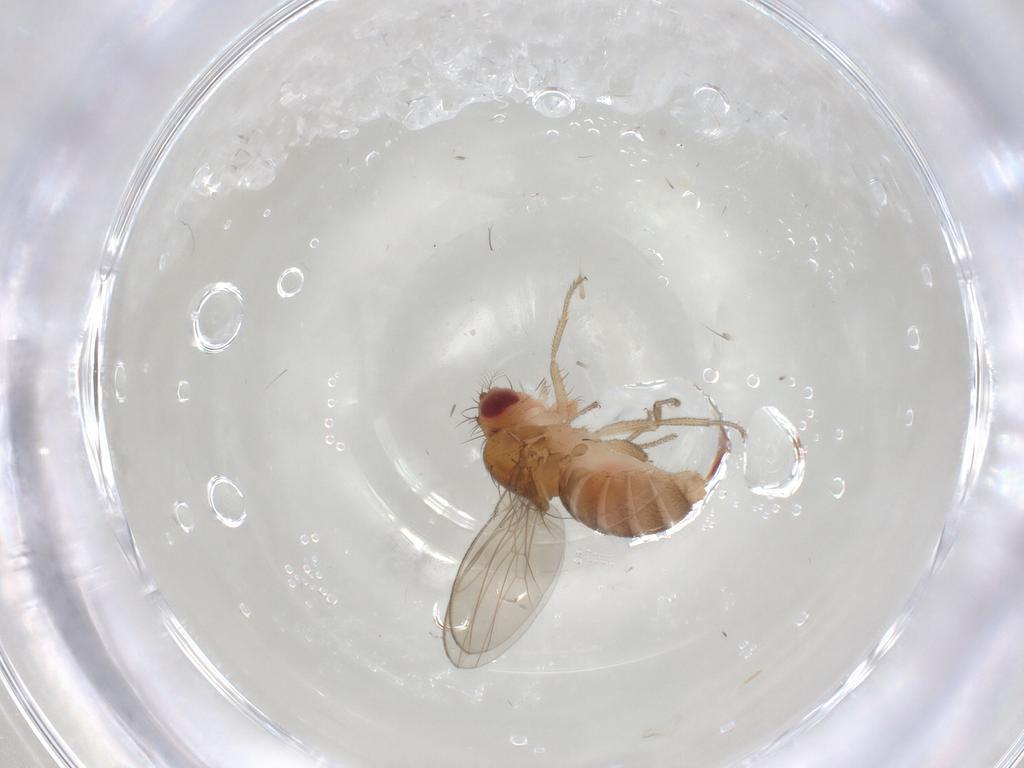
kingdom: Animalia
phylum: Arthropoda
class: Insecta
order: Diptera
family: Drosophilidae
